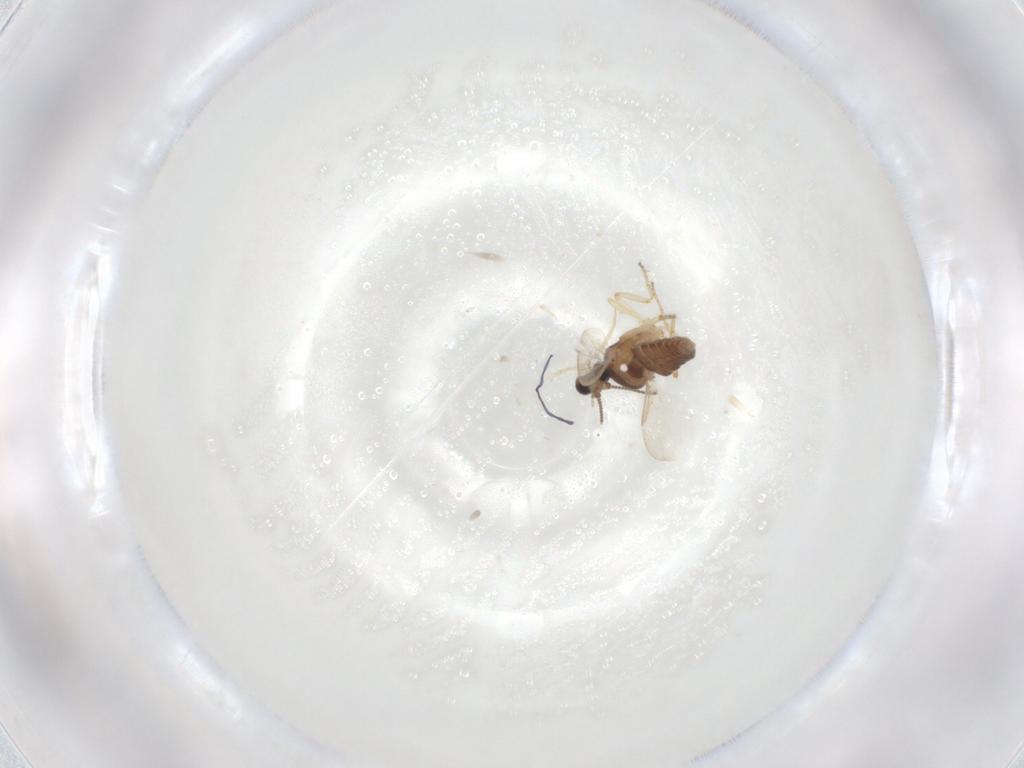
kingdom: Animalia
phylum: Arthropoda
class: Insecta
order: Diptera
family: Ceratopogonidae
